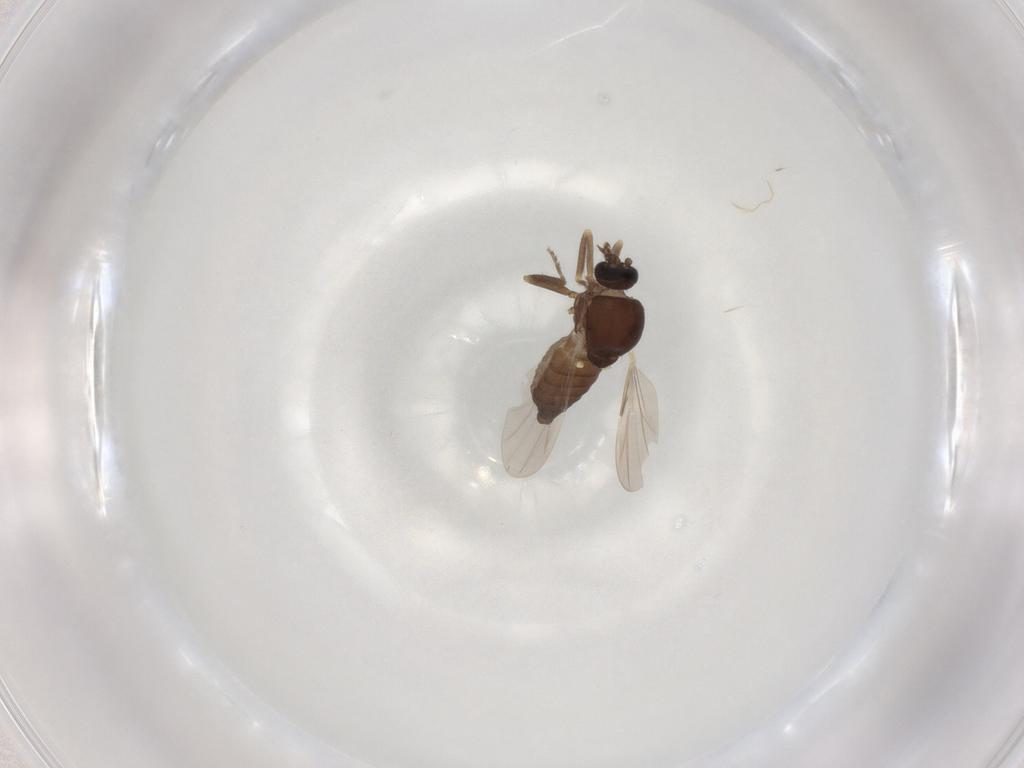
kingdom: Animalia
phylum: Arthropoda
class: Insecta
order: Diptera
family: Ceratopogonidae
